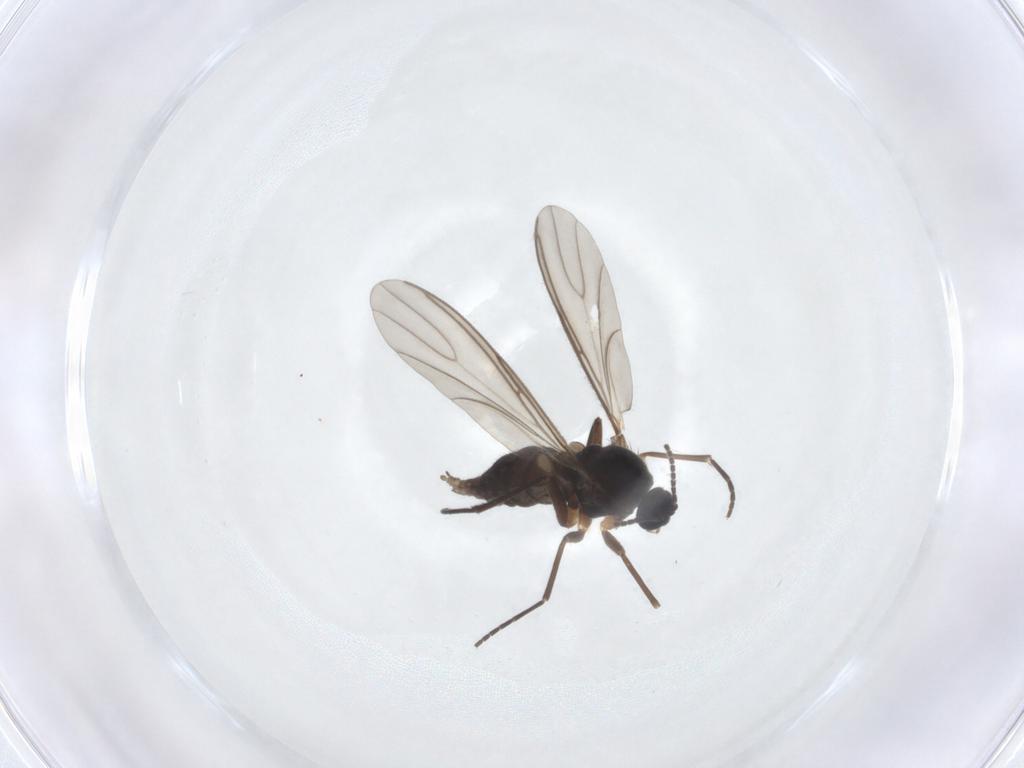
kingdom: Animalia
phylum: Arthropoda
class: Insecta
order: Diptera
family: Sciaridae
